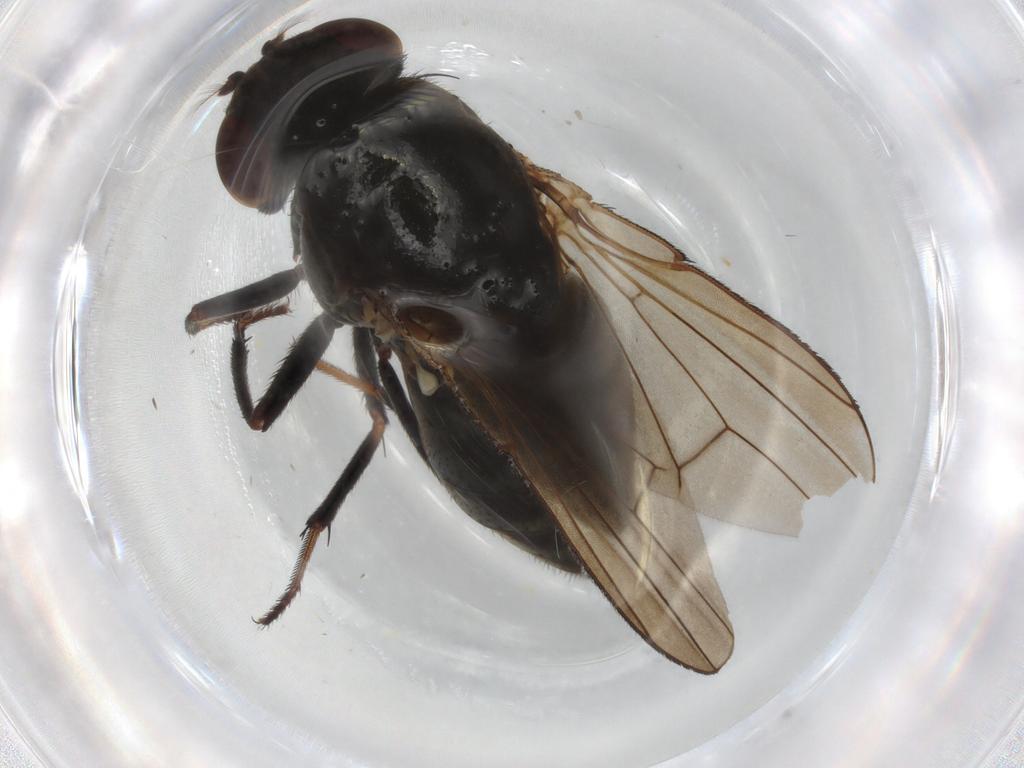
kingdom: Animalia
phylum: Arthropoda
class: Insecta
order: Diptera
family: Ephydridae
